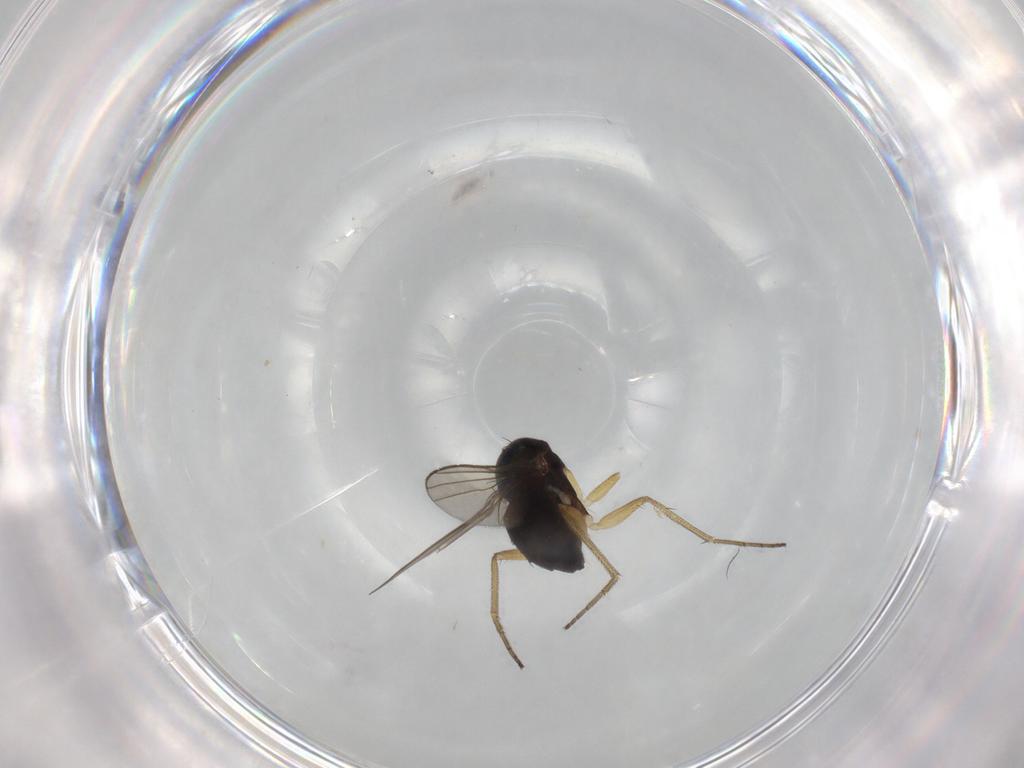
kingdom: Animalia
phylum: Arthropoda
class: Insecta
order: Diptera
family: Dolichopodidae
